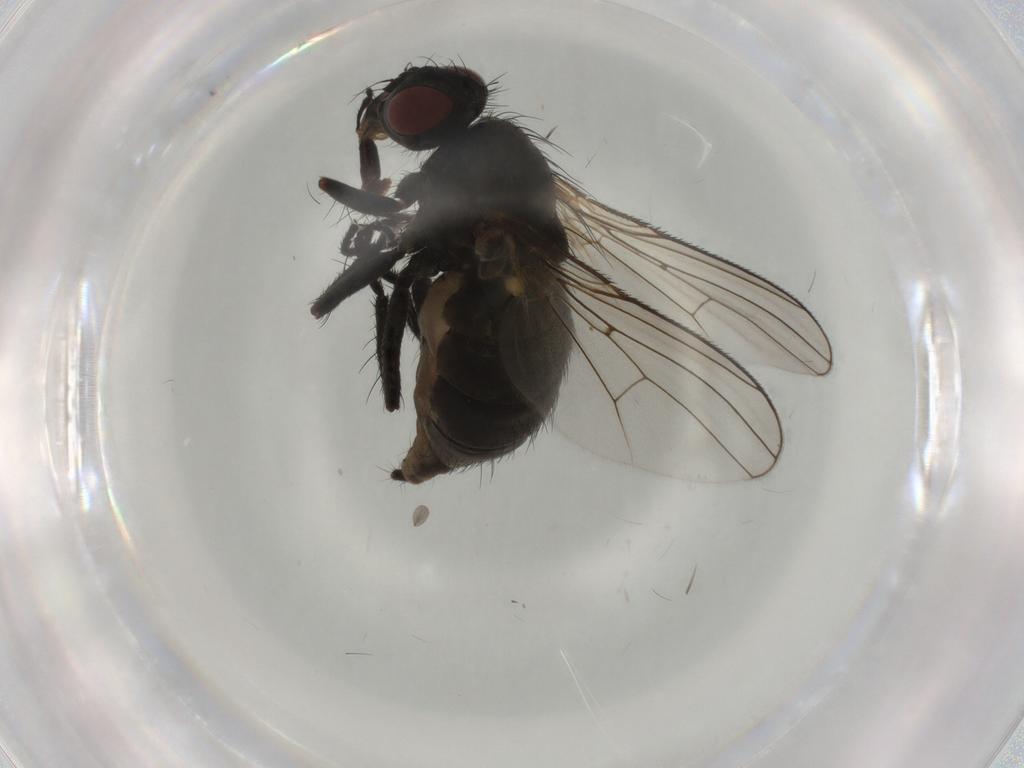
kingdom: Animalia
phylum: Arthropoda
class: Insecta
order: Diptera
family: Muscidae
